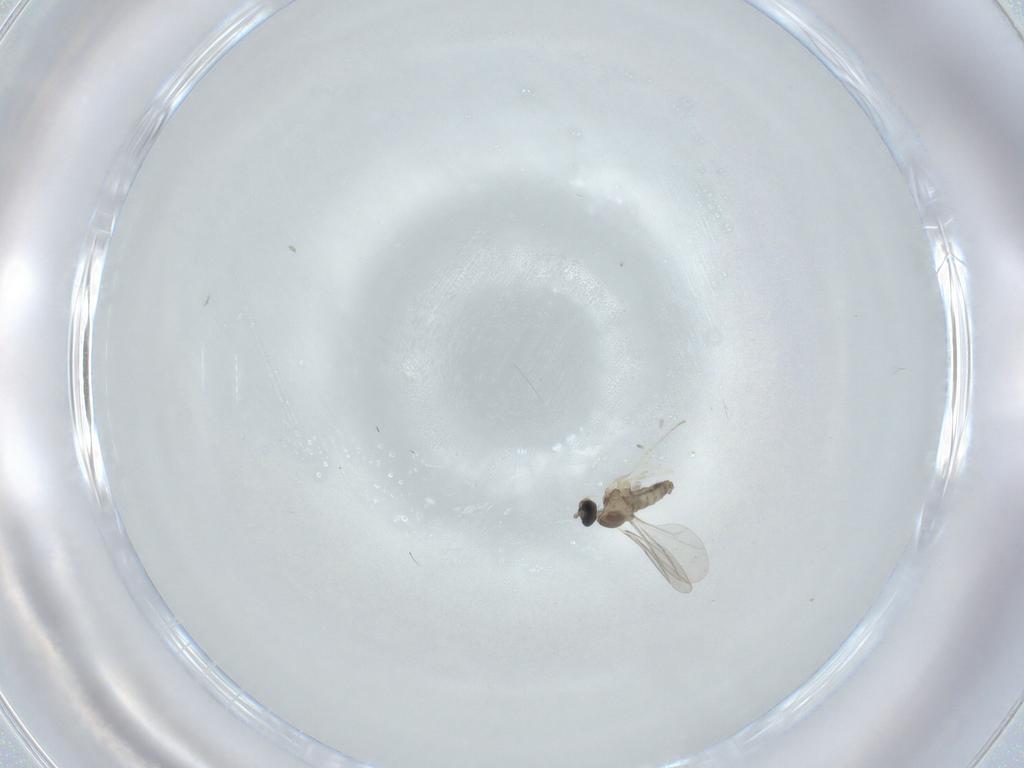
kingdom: Animalia
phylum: Arthropoda
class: Insecta
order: Diptera
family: Cecidomyiidae
